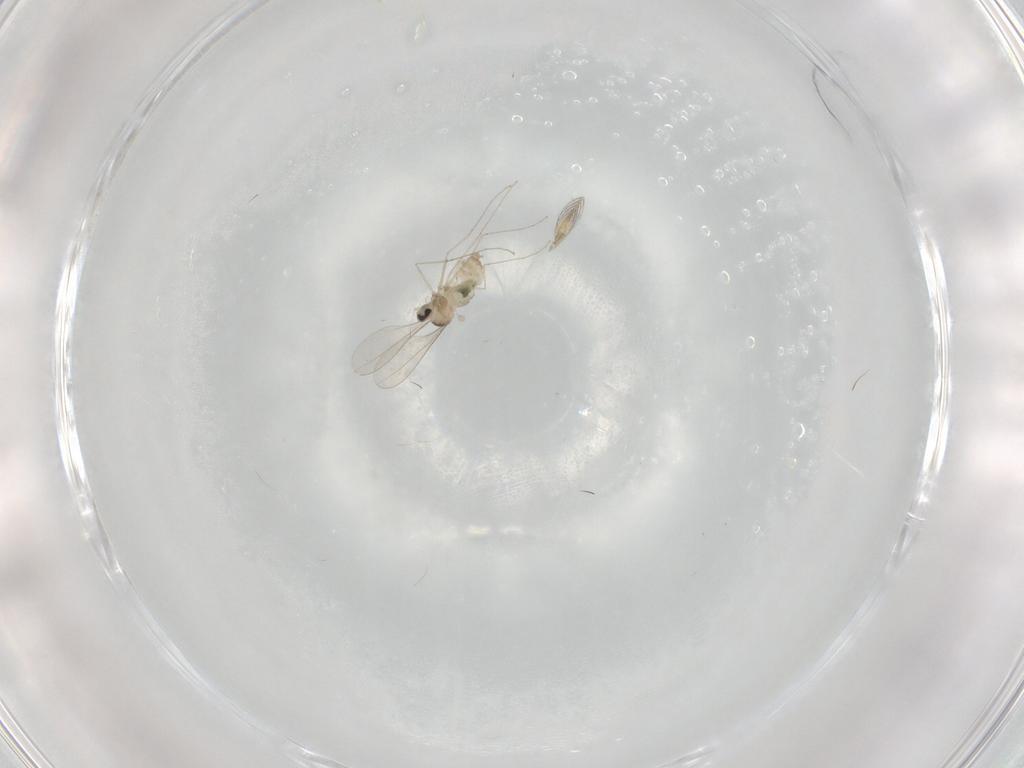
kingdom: Animalia
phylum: Arthropoda
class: Insecta
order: Diptera
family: Cecidomyiidae
